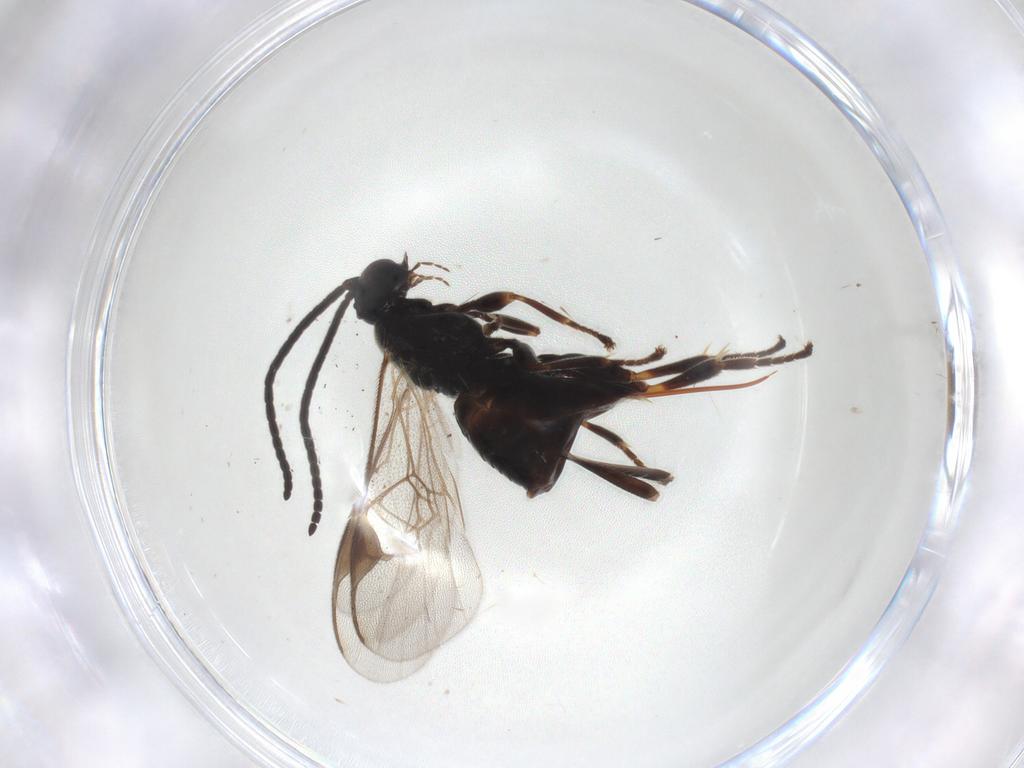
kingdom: Animalia
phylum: Arthropoda
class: Insecta
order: Hymenoptera
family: Braconidae
